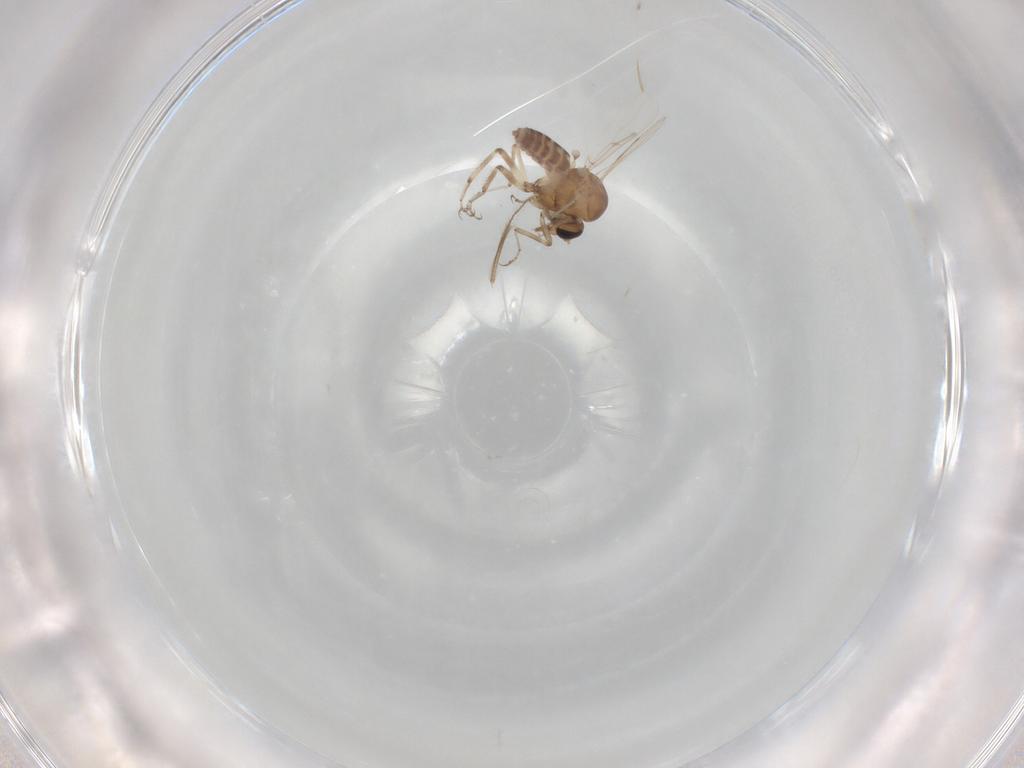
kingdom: Animalia
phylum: Arthropoda
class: Insecta
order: Diptera
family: Ceratopogonidae
